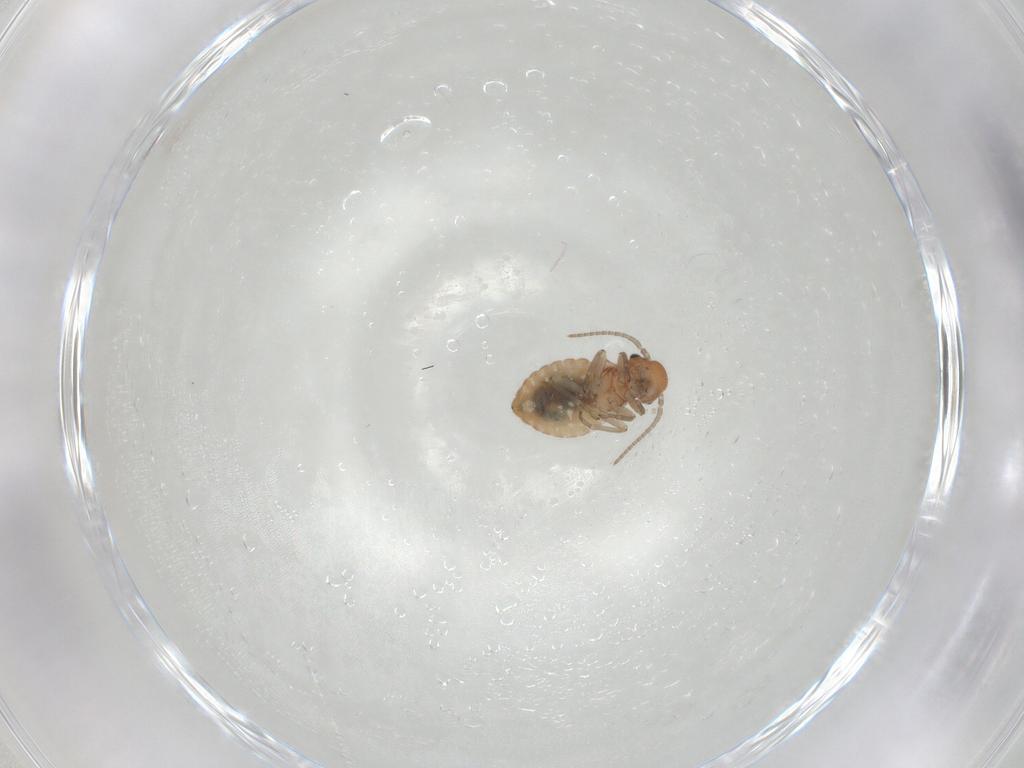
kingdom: Animalia
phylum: Arthropoda
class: Insecta
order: Psocodea
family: Caeciliusidae
